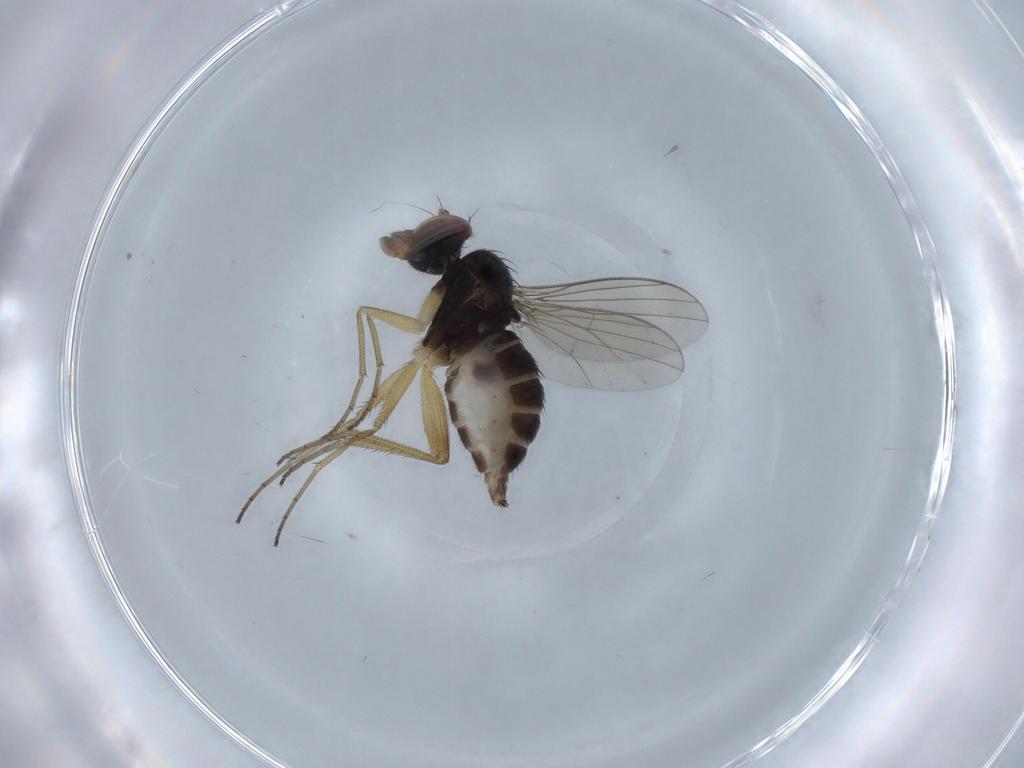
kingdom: Animalia
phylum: Arthropoda
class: Insecta
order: Diptera
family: Dolichopodidae
